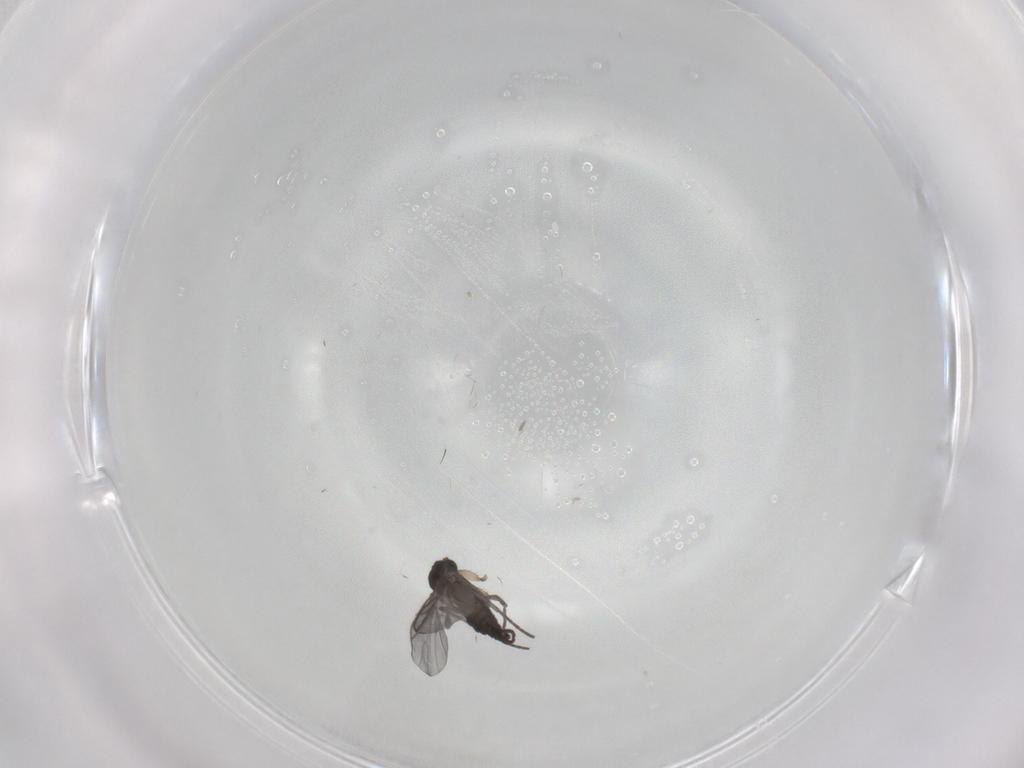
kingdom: Animalia
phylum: Arthropoda
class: Insecta
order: Diptera
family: Sciaridae
